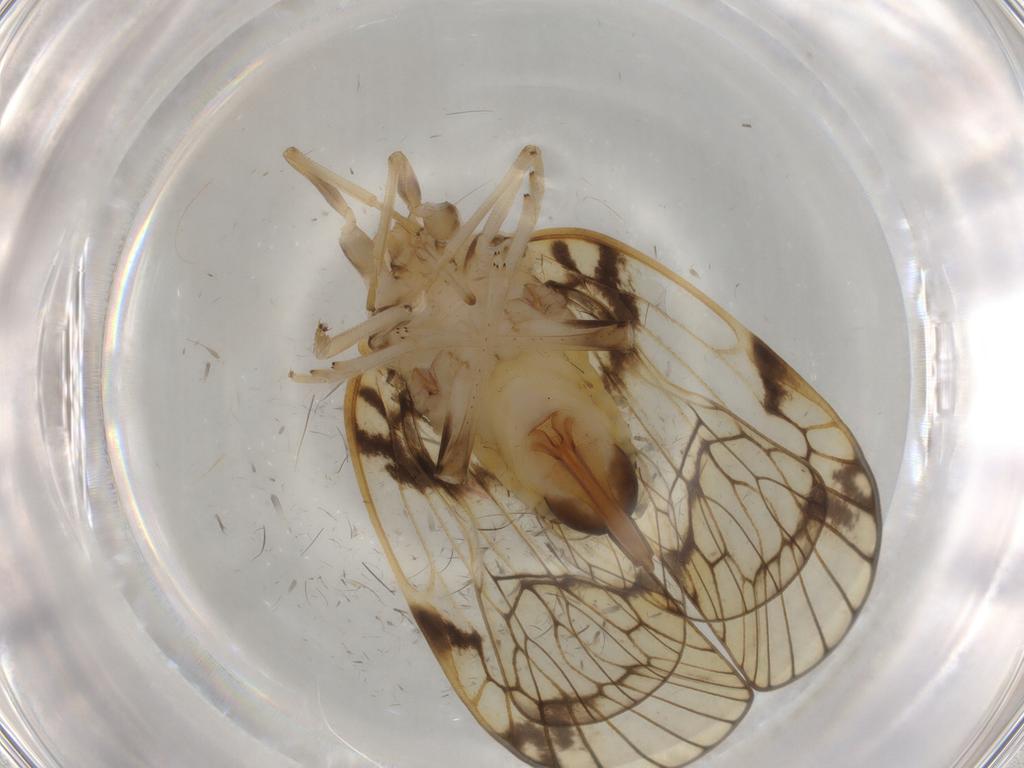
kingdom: Animalia
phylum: Arthropoda
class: Insecta
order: Hemiptera
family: Cixiidae
